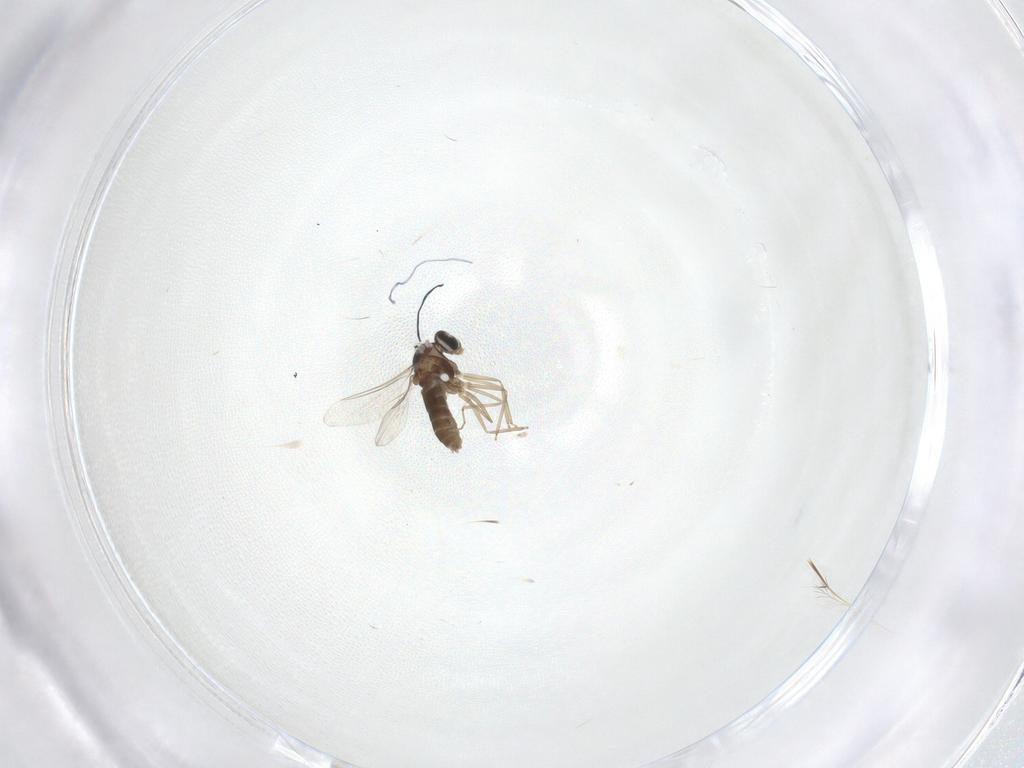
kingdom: Animalia
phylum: Arthropoda
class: Insecta
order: Diptera
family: Cecidomyiidae
